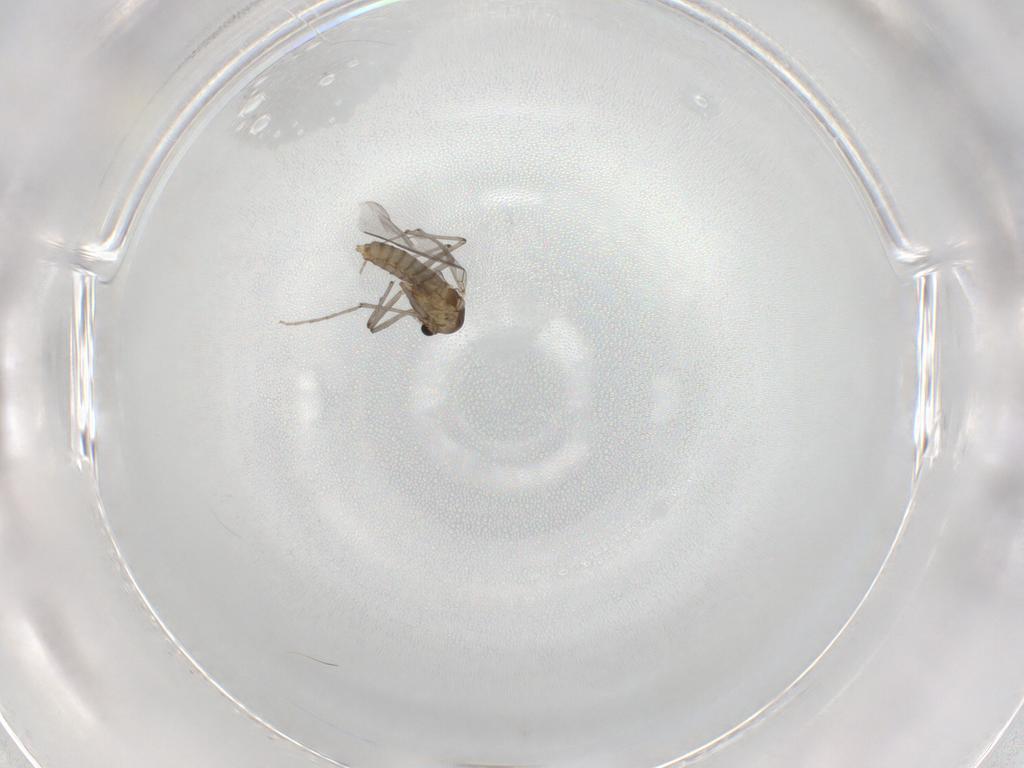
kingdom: Animalia
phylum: Arthropoda
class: Insecta
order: Diptera
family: Chironomidae
